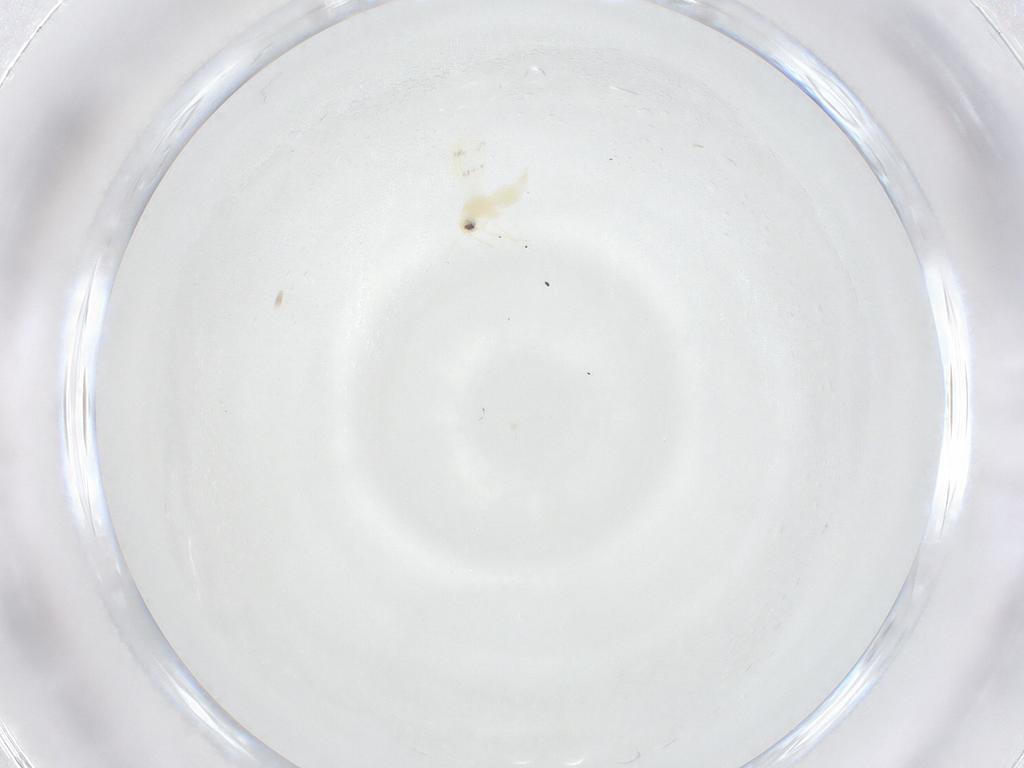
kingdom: Animalia
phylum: Arthropoda
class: Insecta
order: Hemiptera
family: Aleyrodidae
